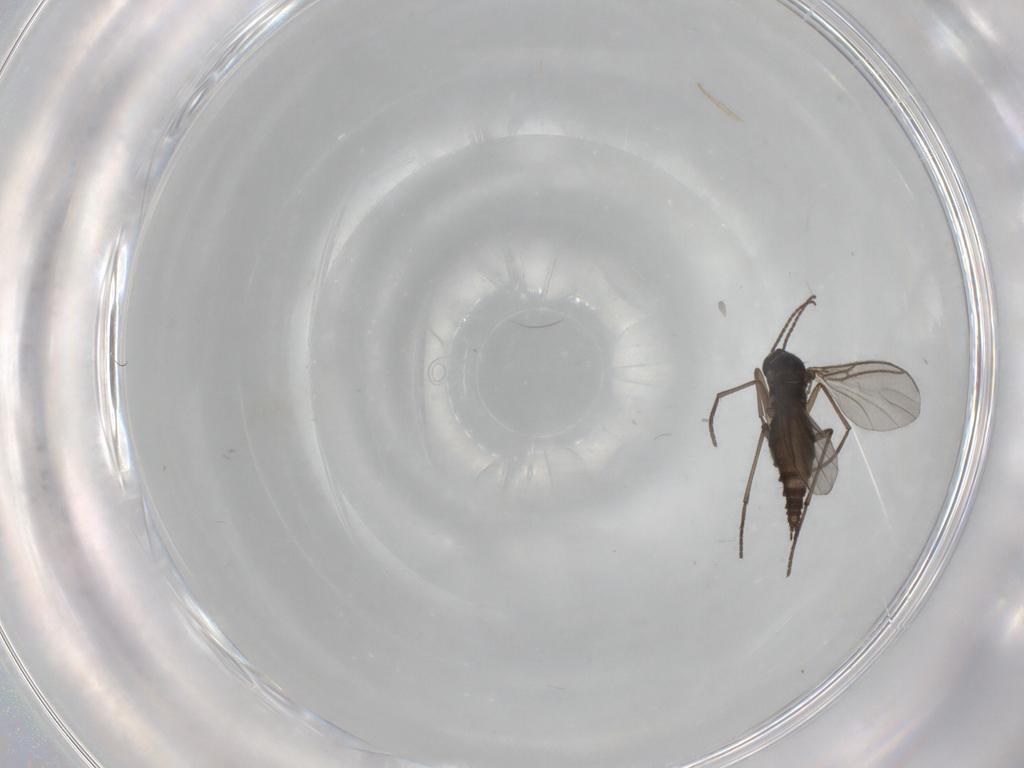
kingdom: Animalia
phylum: Arthropoda
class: Insecta
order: Diptera
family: Sciaridae
